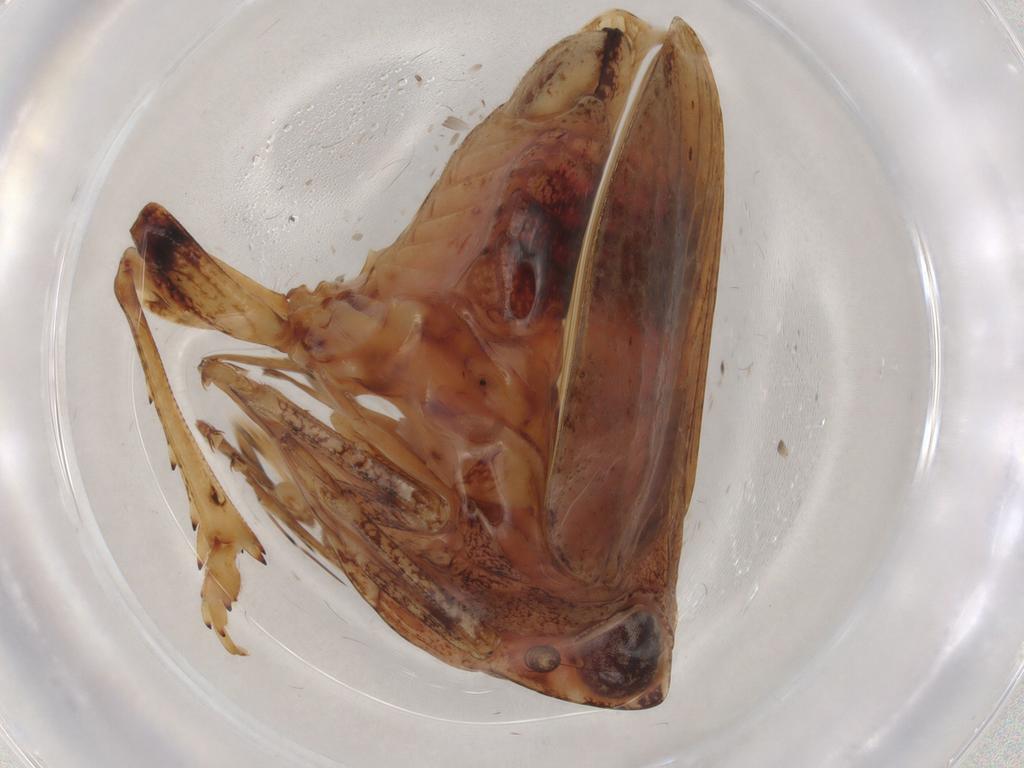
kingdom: Animalia
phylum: Arthropoda
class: Insecta
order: Hemiptera
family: Nogodinidae
